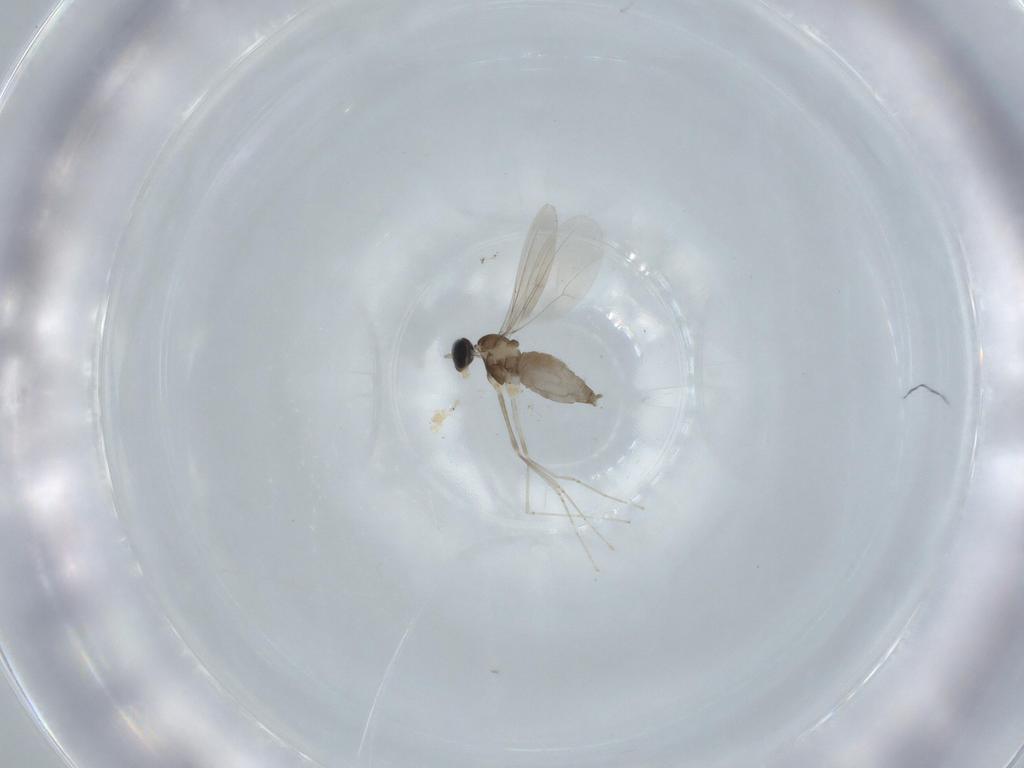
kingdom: Animalia
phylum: Arthropoda
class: Insecta
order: Diptera
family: Cecidomyiidae
